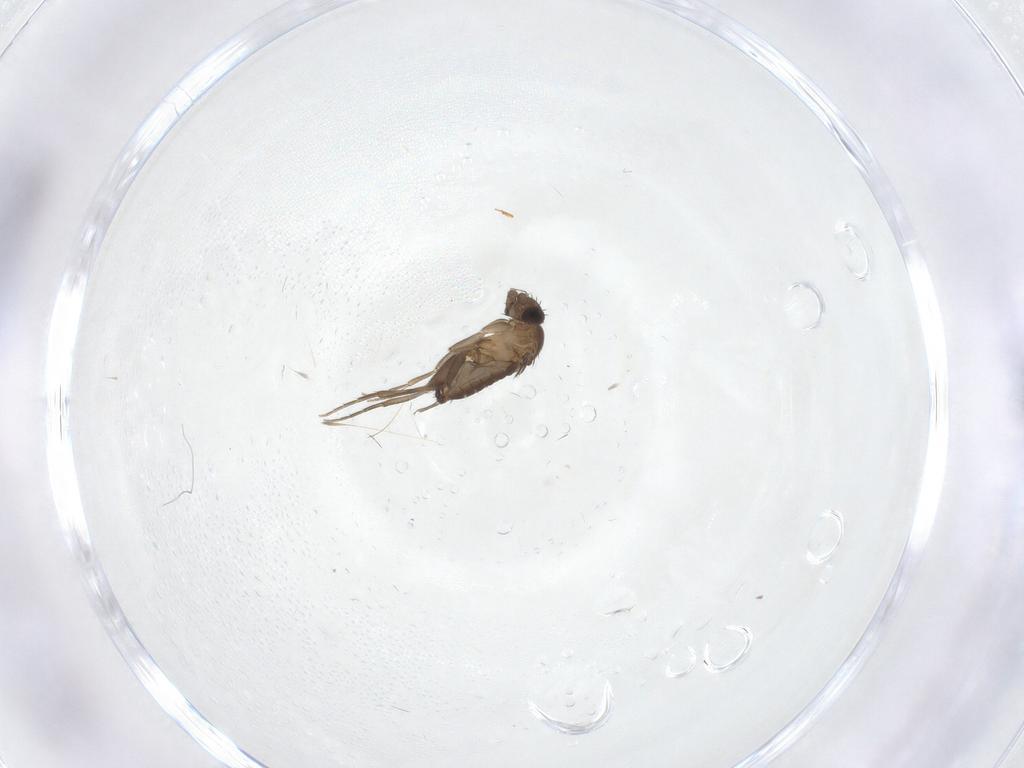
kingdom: Animalia
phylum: Arthropoda
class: Insecta
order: Diptera
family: Phoridae
